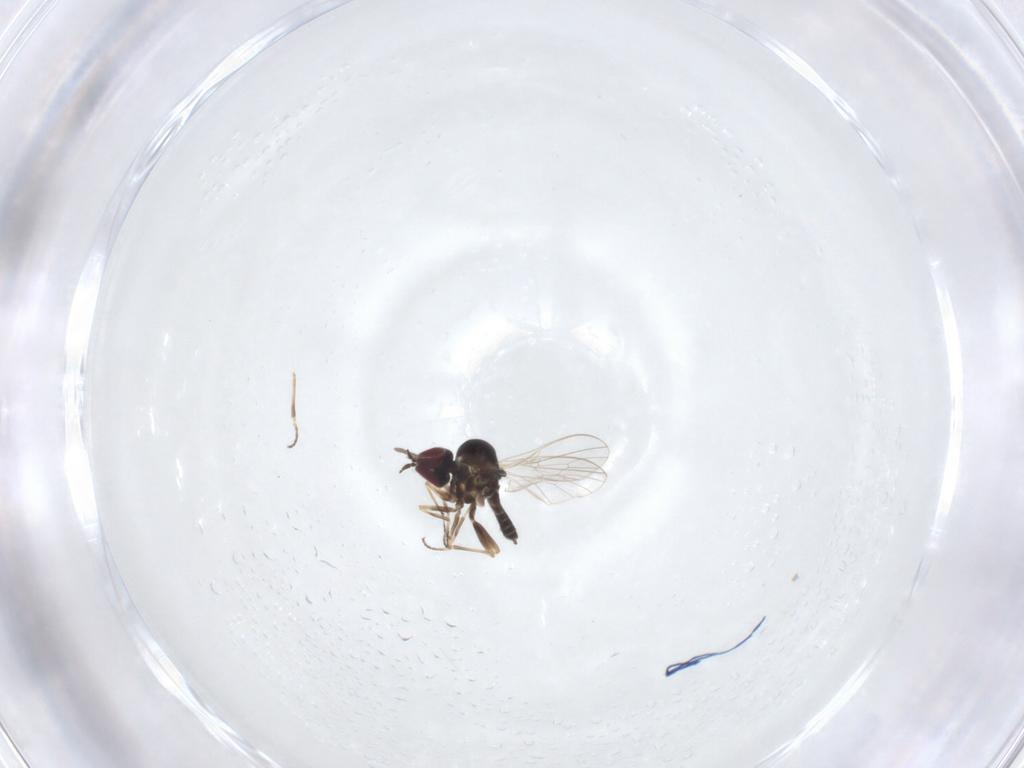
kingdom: Animalia
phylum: Arthropoda
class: Insecta
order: Diptera
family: Mythicomyiidae
